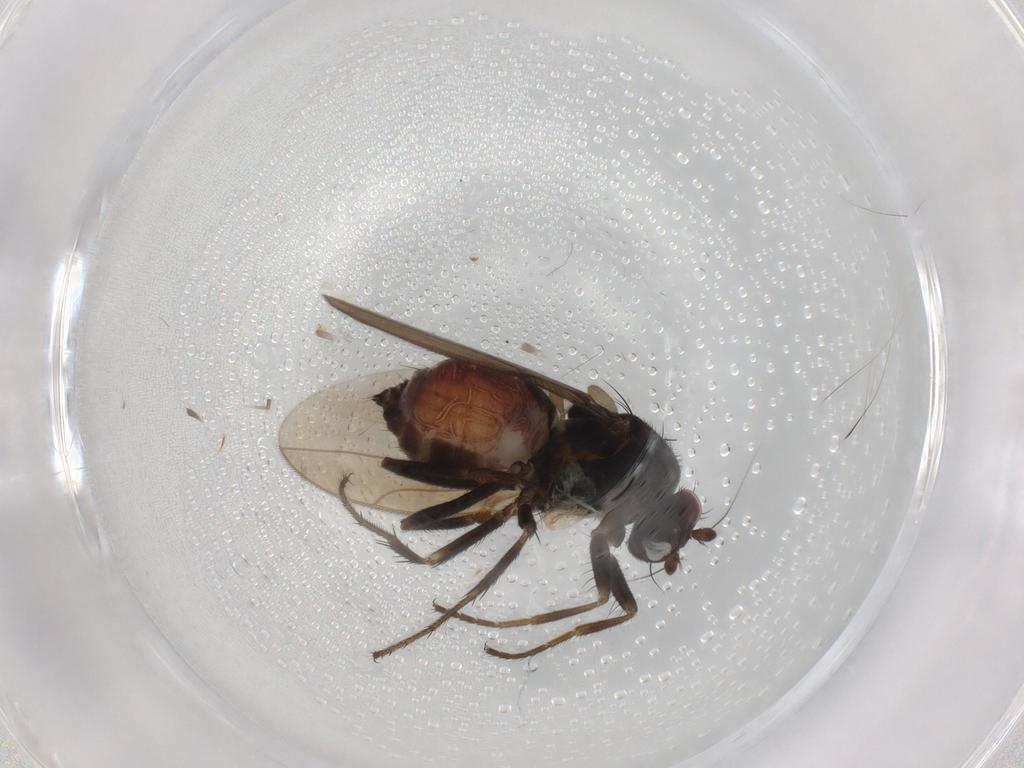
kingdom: Animalia
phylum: Arthropoda
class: Insecta
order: Diptera
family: Sphaeroceridae
